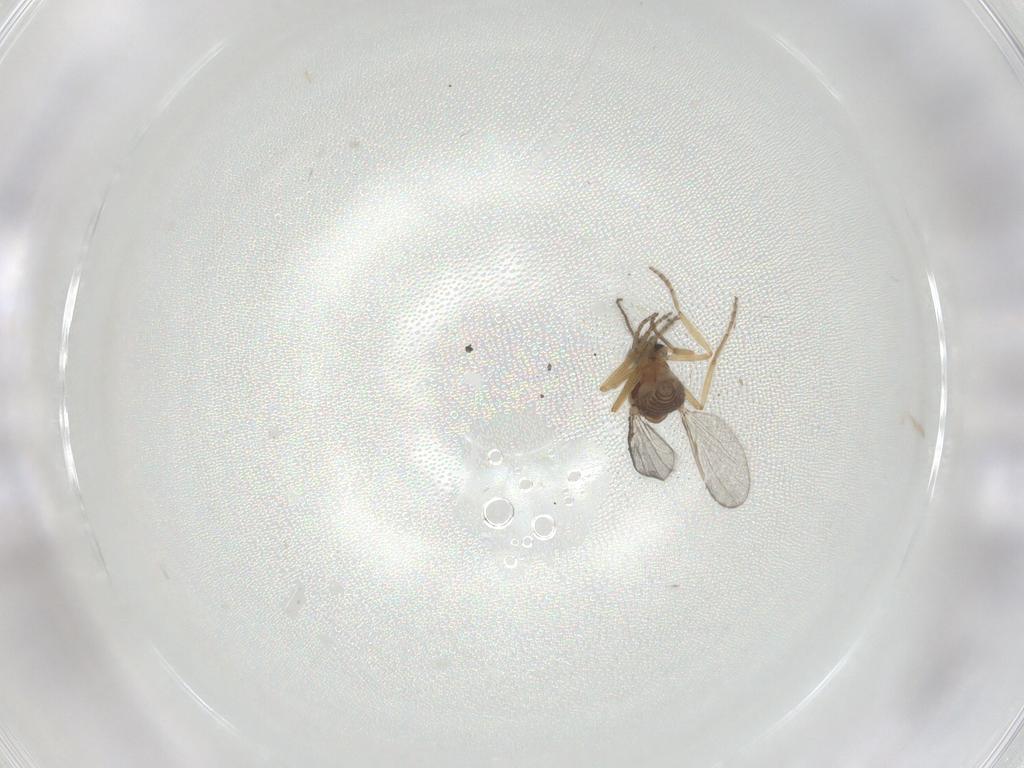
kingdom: Animalia
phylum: Arthropoda
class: Insecta
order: Diptera
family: Ceratopogonidae
